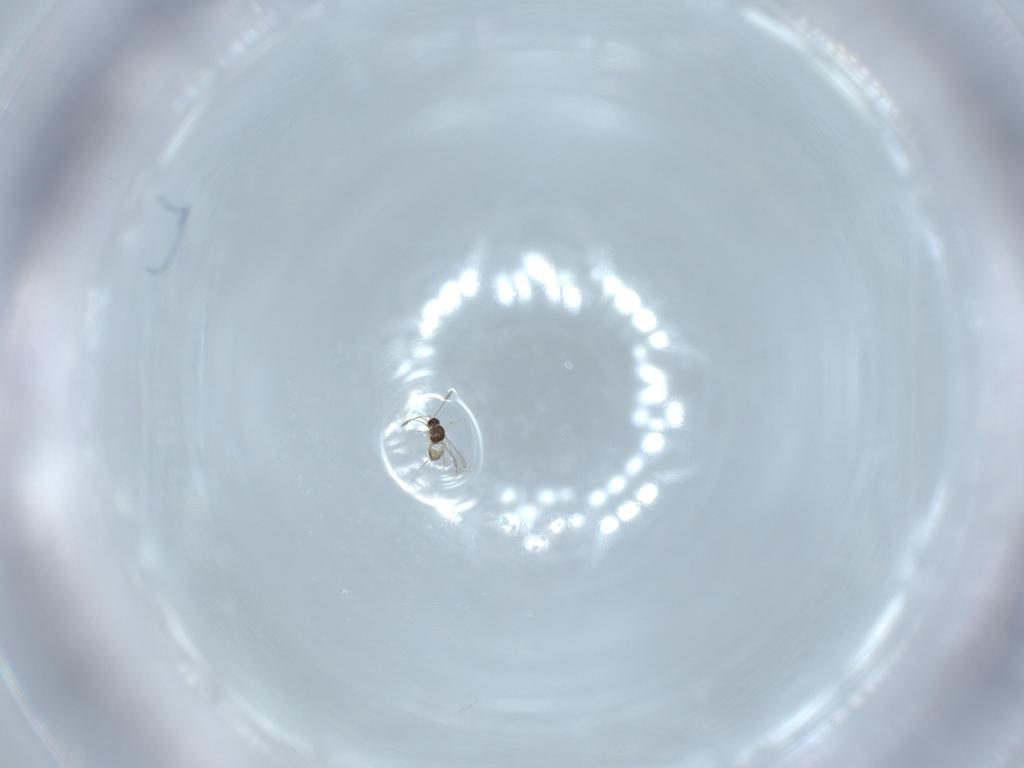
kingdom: Animalia
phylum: Arthropoda
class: Insecta
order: Hymenoptera
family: Mymaridae
